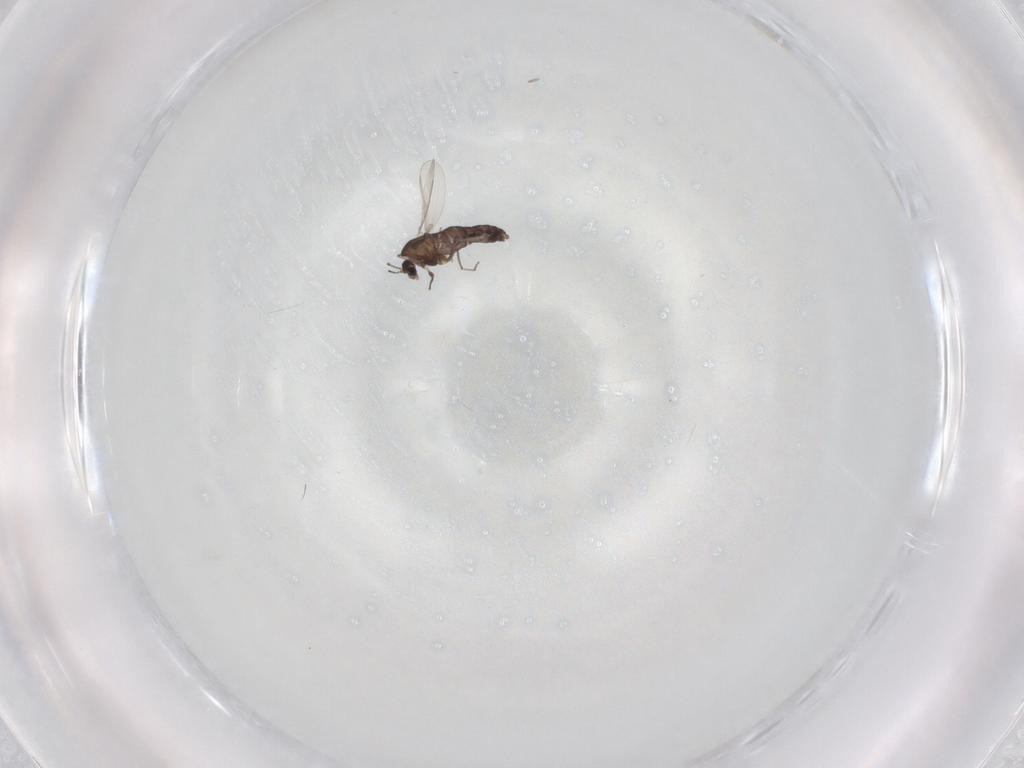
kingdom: Animalia
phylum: Arthropoda
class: Insecta
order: Diptera
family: Chironomidae
